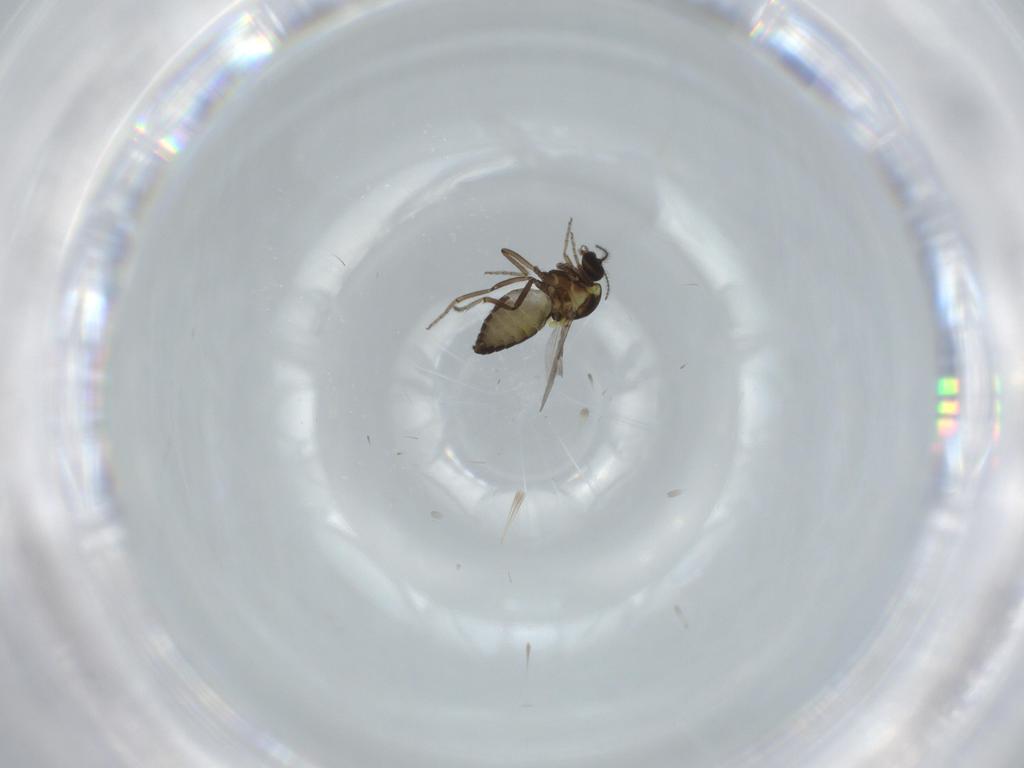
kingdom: Animalia
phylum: Arthropoda
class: Insecta
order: Diptera
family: Ceratopogonidae
